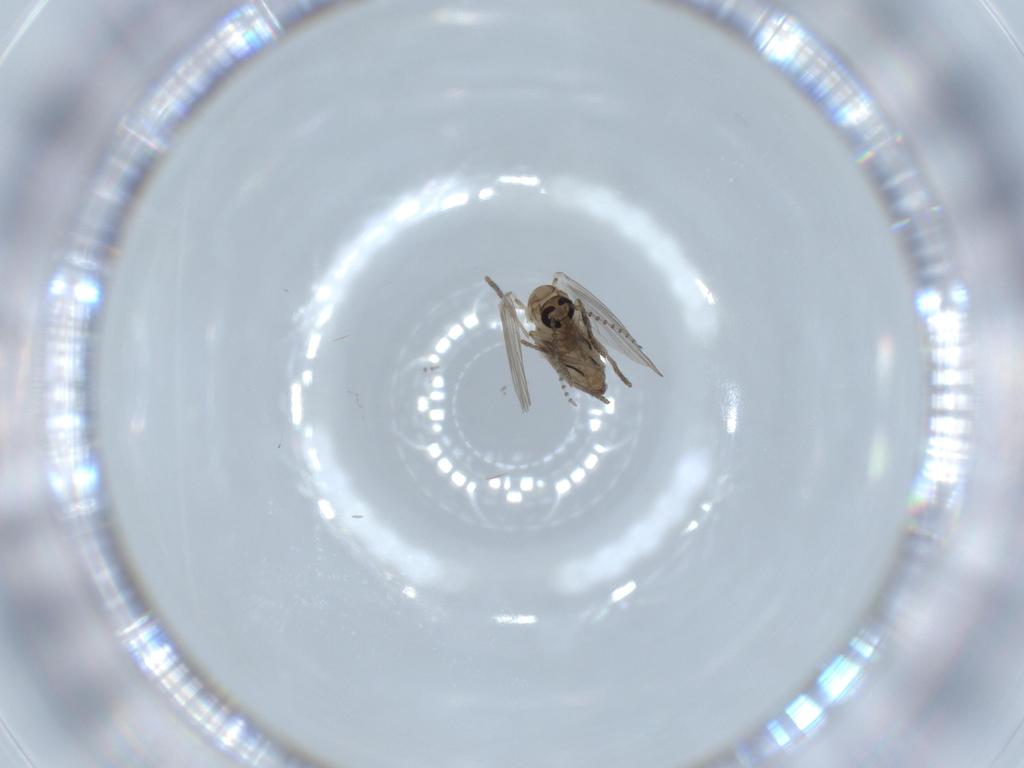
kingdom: Animalia
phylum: Arthropoda
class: Insecta
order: Diptera
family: Psychodidae
